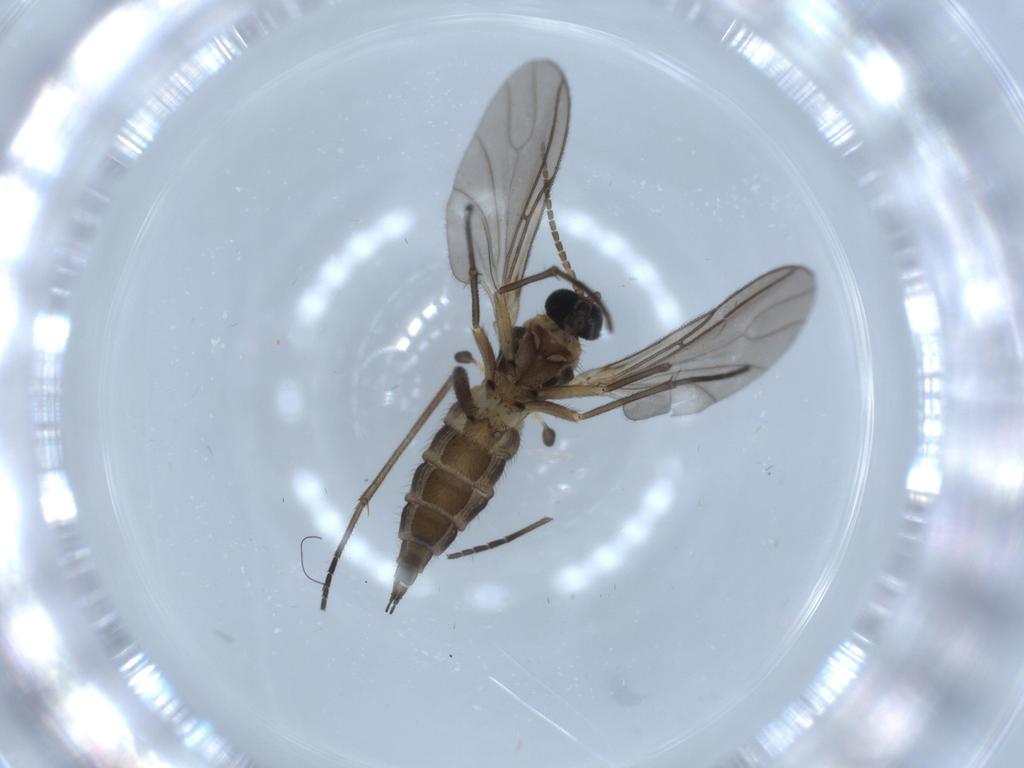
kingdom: Animalia
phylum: Arthropoda
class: Insecta
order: Diptera
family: Sciaridae
